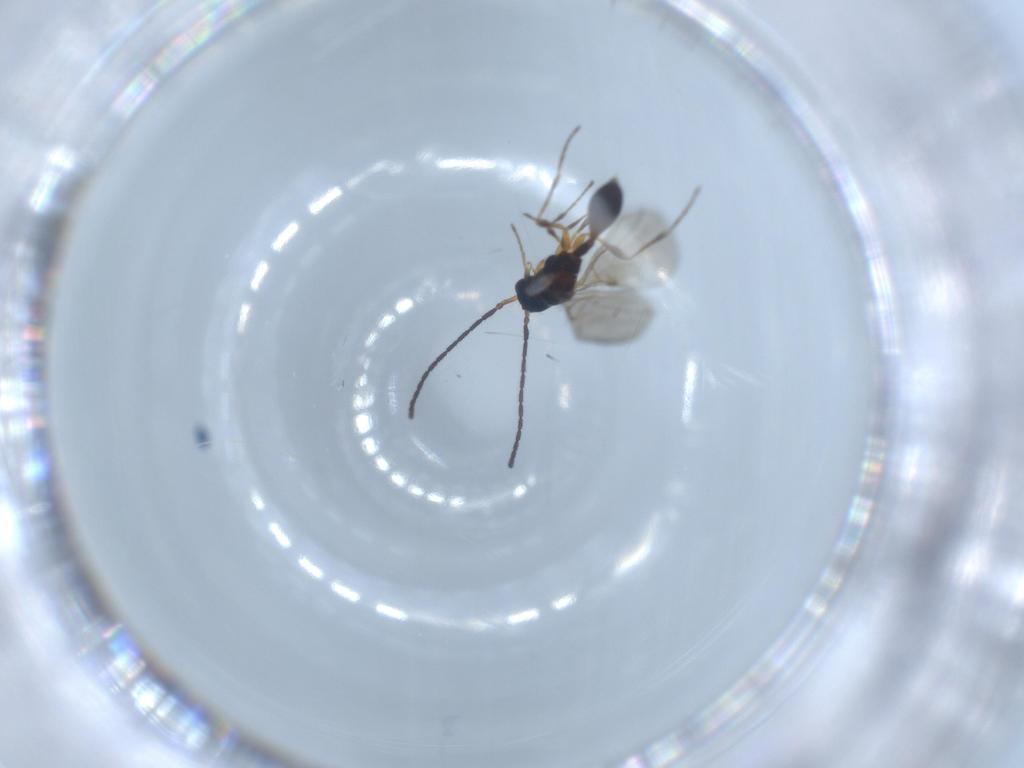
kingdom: Animalia
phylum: Arthropoda
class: Insecta
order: Hymenoptera
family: Diapriidae
